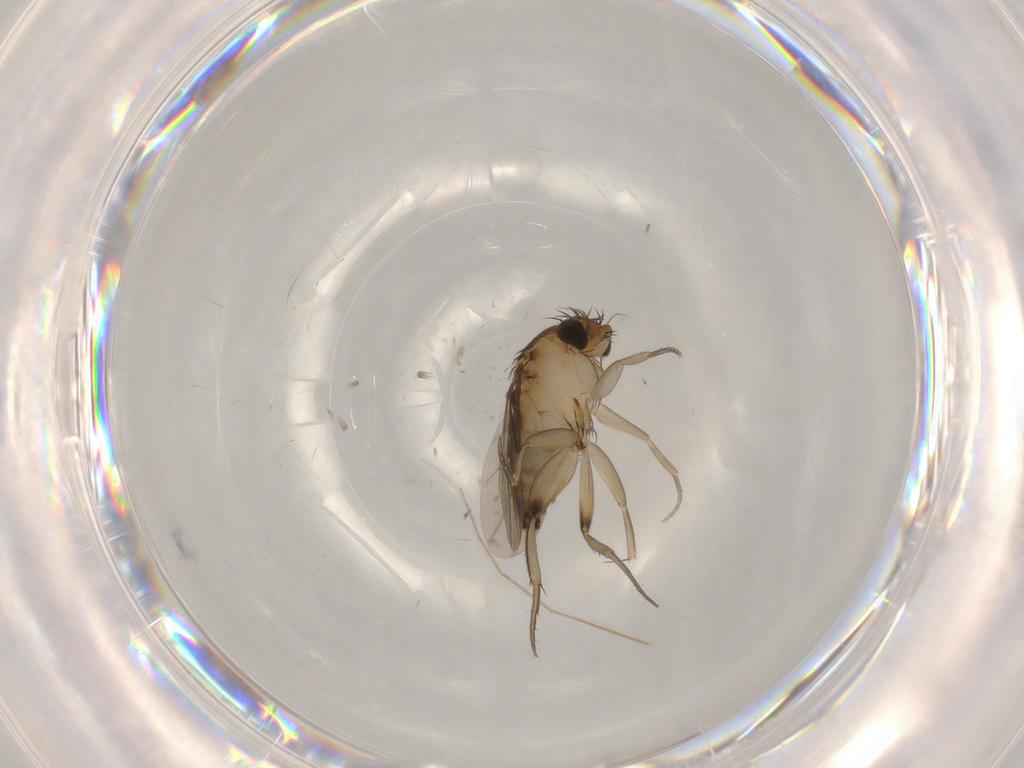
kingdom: Animalia
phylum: Arthropoda
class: Insecta
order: Diptera
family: Chironomidae
